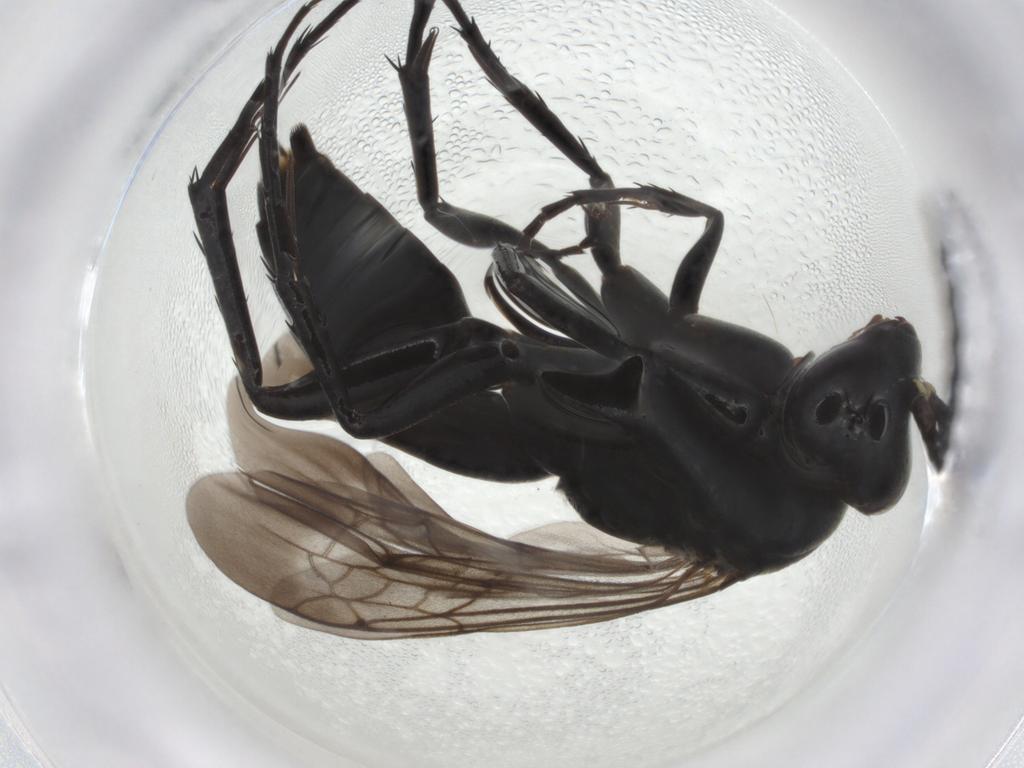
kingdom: Animalia
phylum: Arthropoda
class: Insecta
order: Hymenoptera
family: Pompilidae
